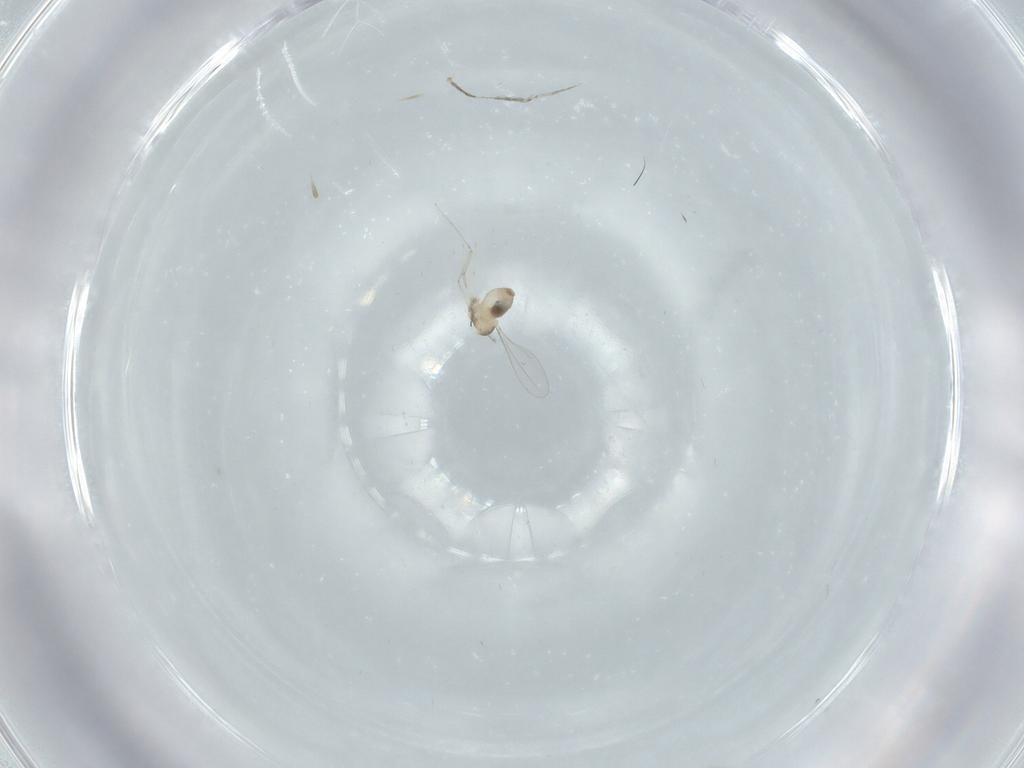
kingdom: Animalia
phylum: Arthropoda
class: Insecta
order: Diptera
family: Cecidomyiidae
